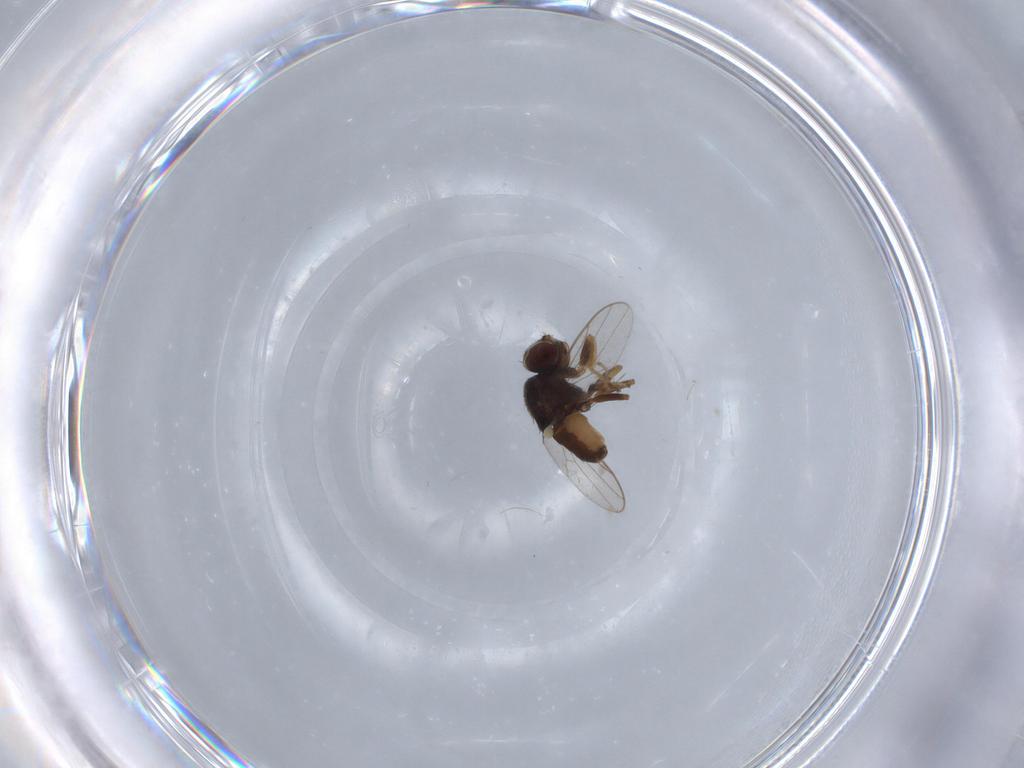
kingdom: Animalia
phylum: Arthropoda
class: Insecta
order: Diptera
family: Chloropidae
